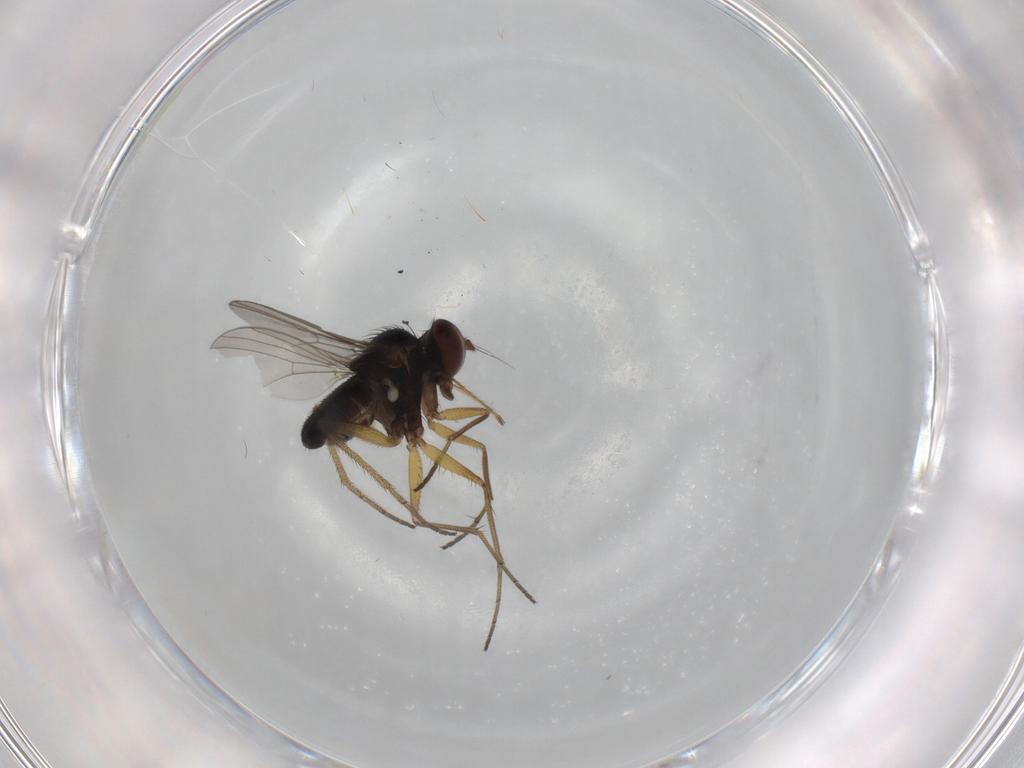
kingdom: Animalia
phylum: Arthropoda
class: Insecta
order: Diptera
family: Dolichopodidae
